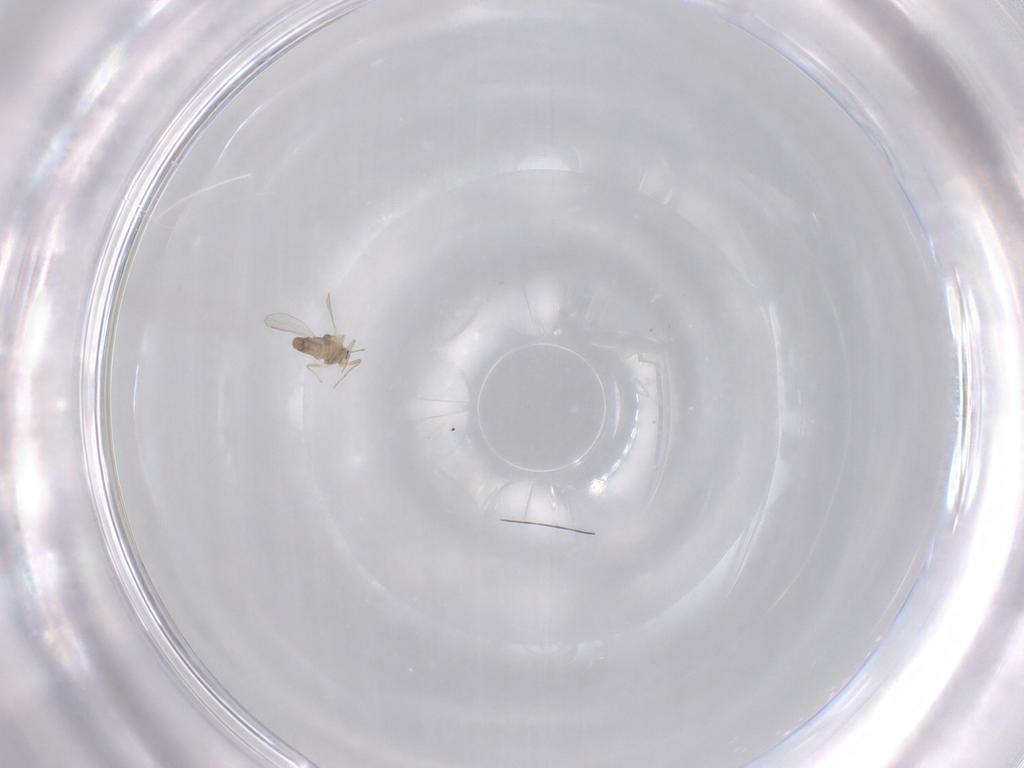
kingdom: Animalia
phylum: Arthropoda
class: Insecta
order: Diptera
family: Chironomidae
